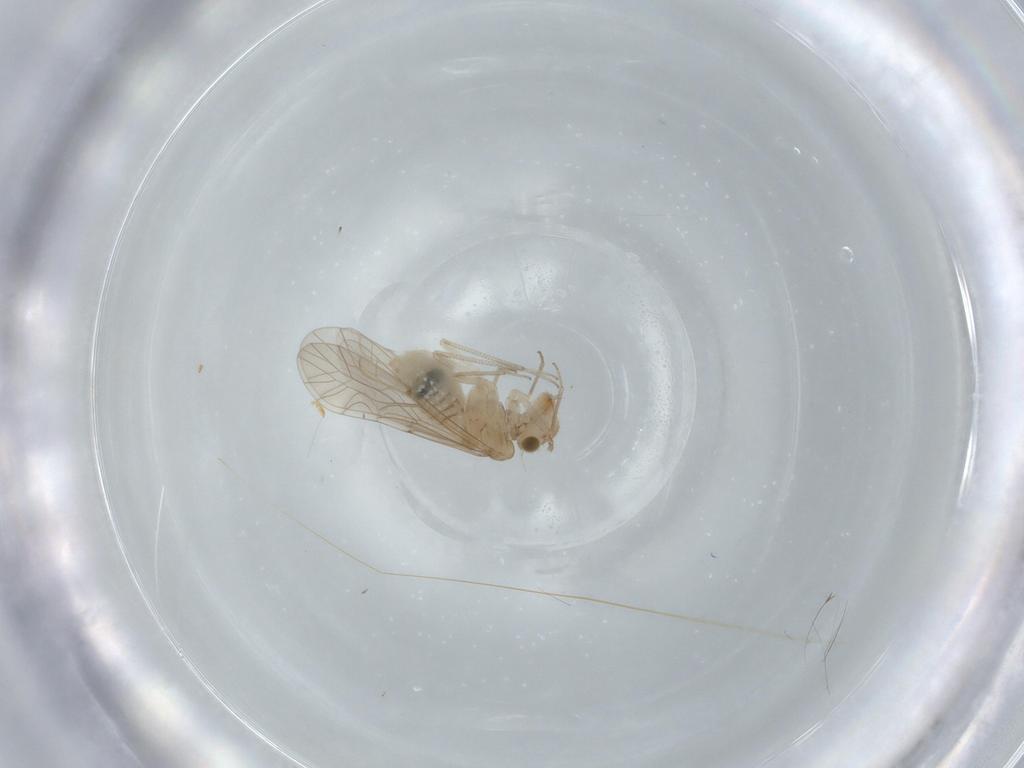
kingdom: Animalia
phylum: Arthropoda
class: Insecta
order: Psocodea
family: Lachesillidae
